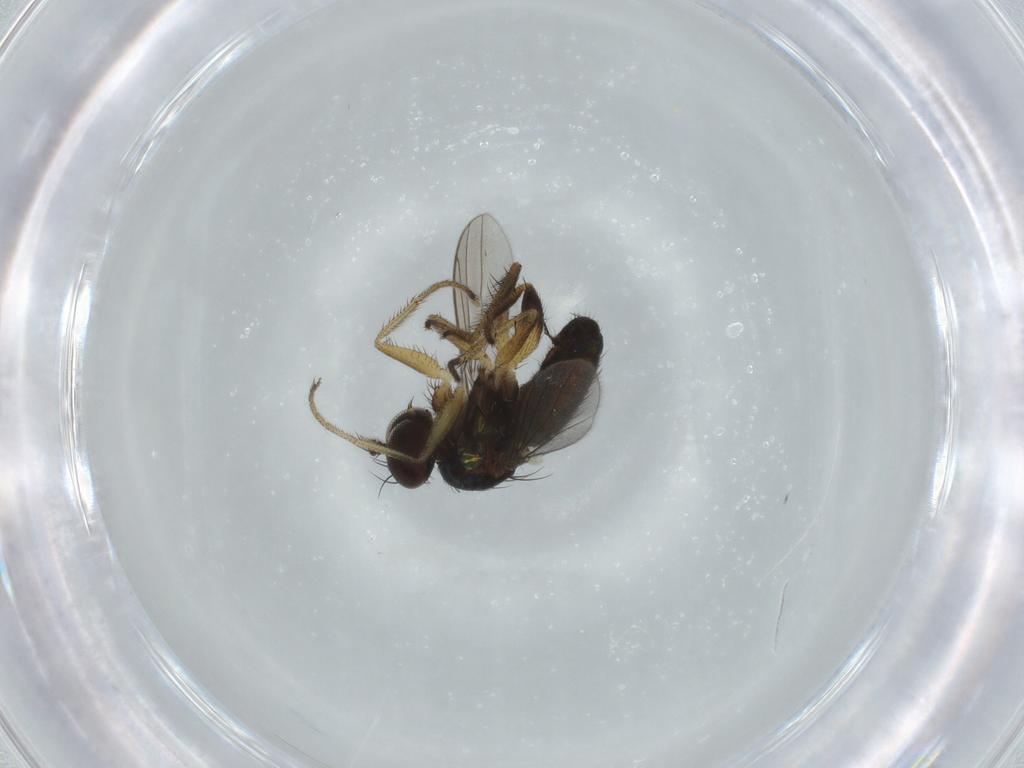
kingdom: Animalia
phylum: Arthropoda
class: Insecta
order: Diptera
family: Dolichopodidae
